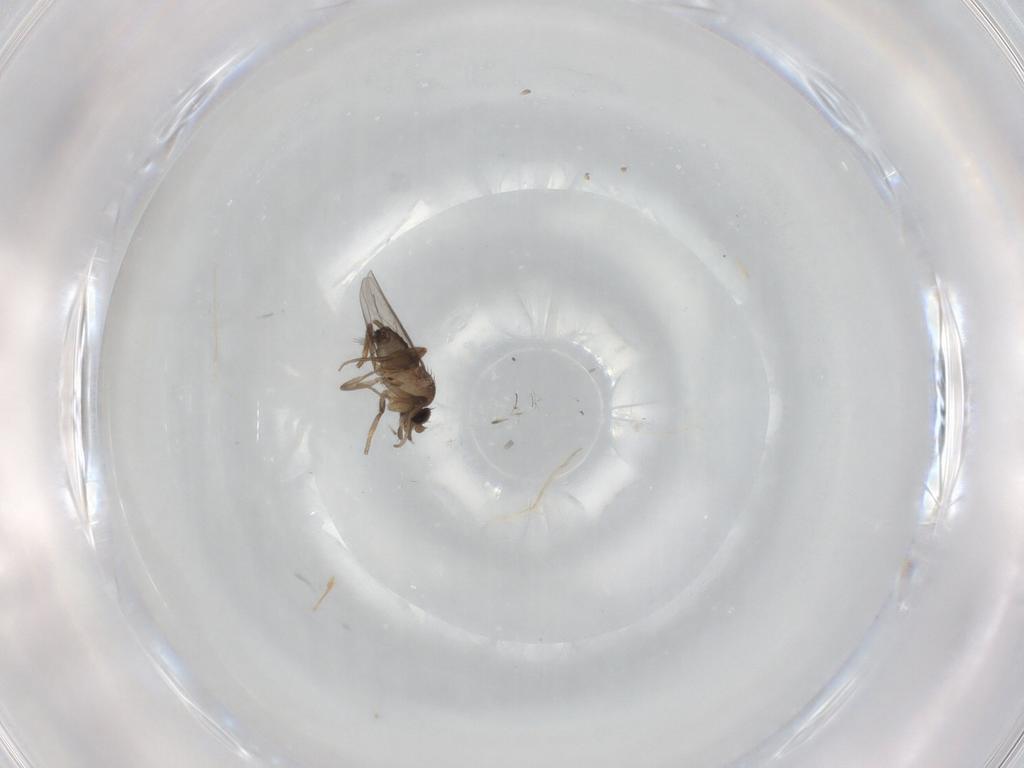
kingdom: Animalia
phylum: Arthropoda
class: Insecta
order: Diptera
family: Phoridae
